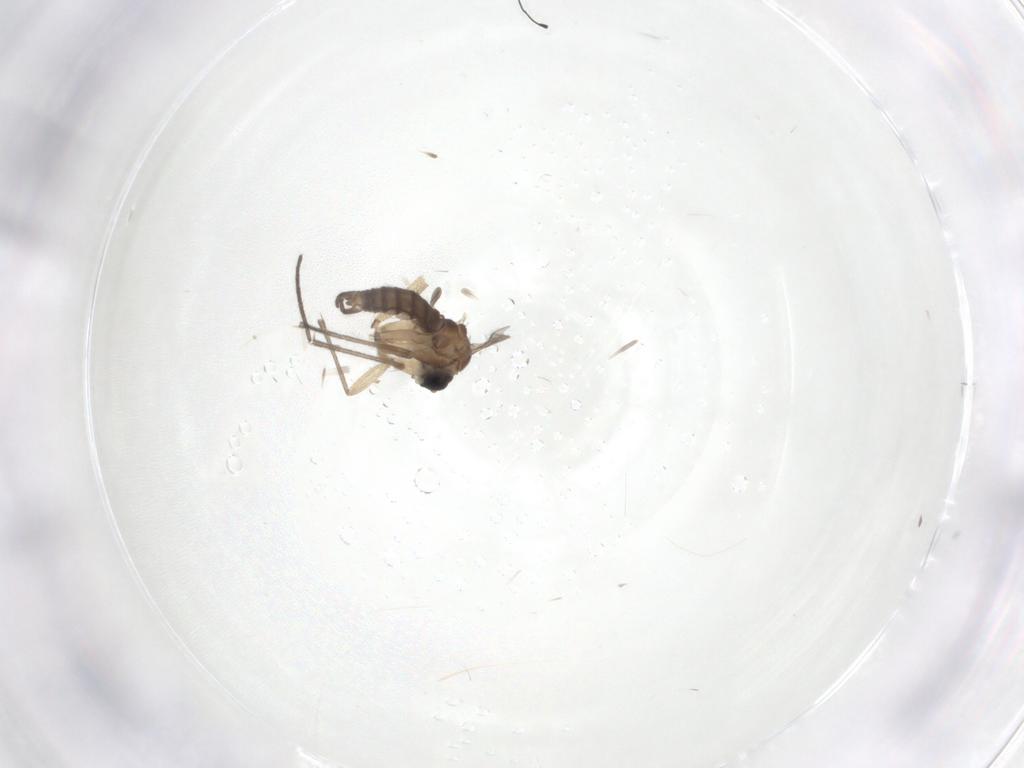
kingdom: Animalia
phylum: Arthropoda
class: Insecta
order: Diptera
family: Sciaridae
